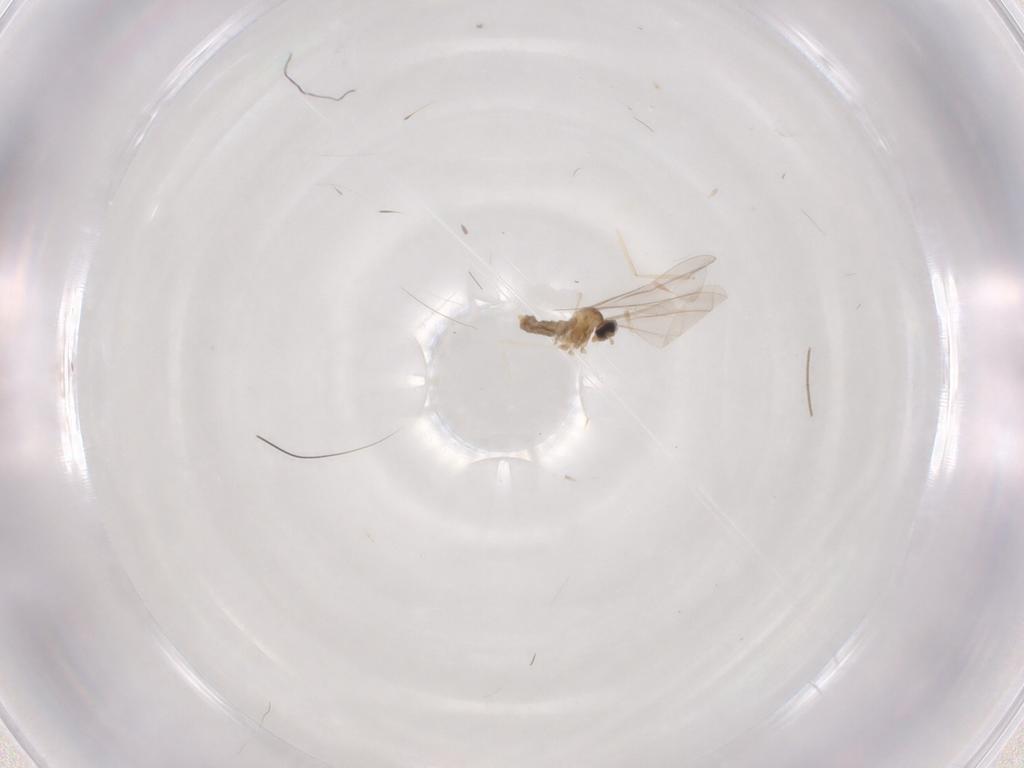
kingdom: Animalia
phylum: Arthropoda
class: Insecta
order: Diptera
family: Cecidomyiidae
